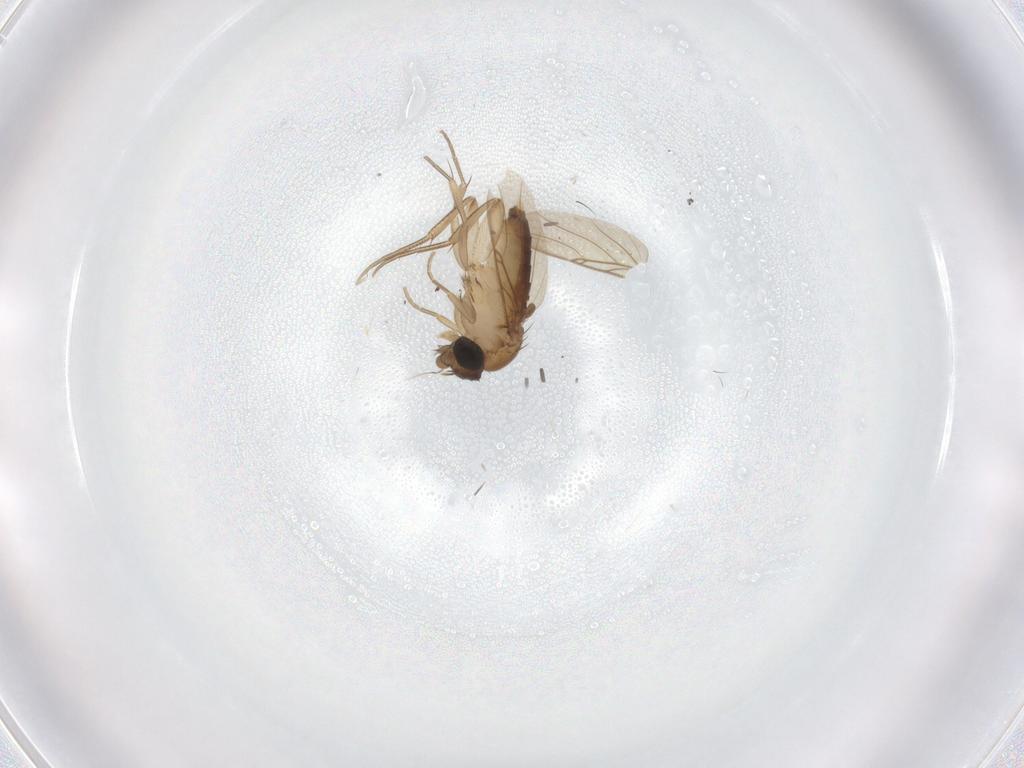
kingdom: Animalia
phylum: Arthropoda
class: Insecta
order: Diptera
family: Phoridae
